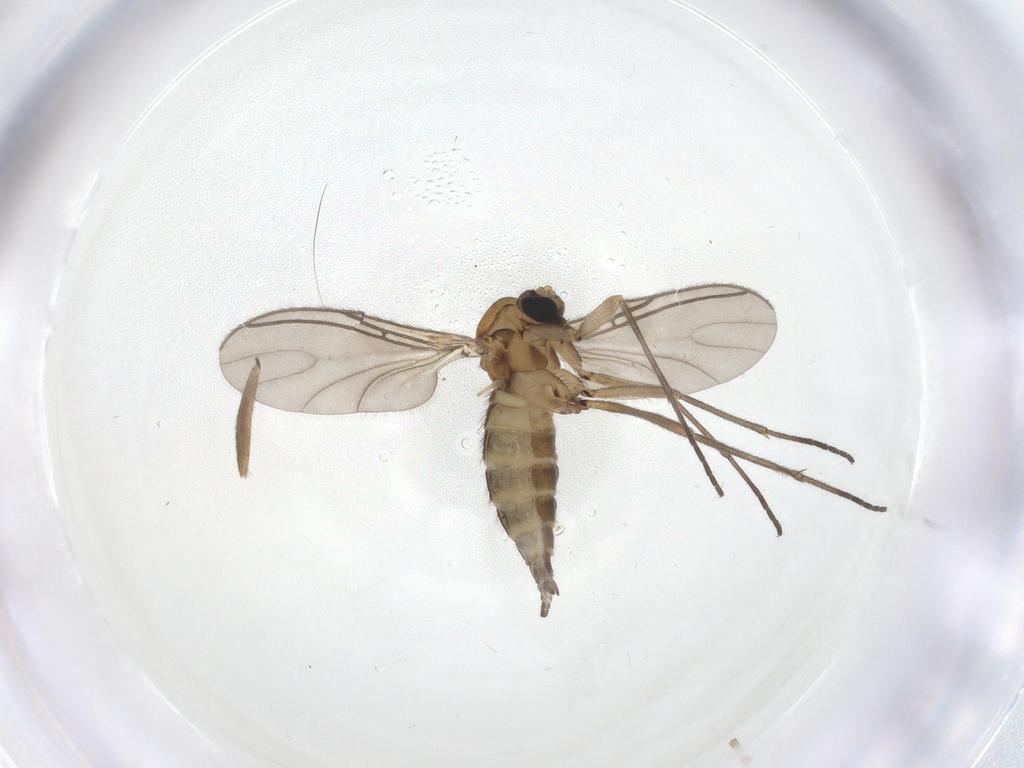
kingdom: Animalia
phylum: Arthropoda
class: Insecta
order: Diptera
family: Sciaridae
